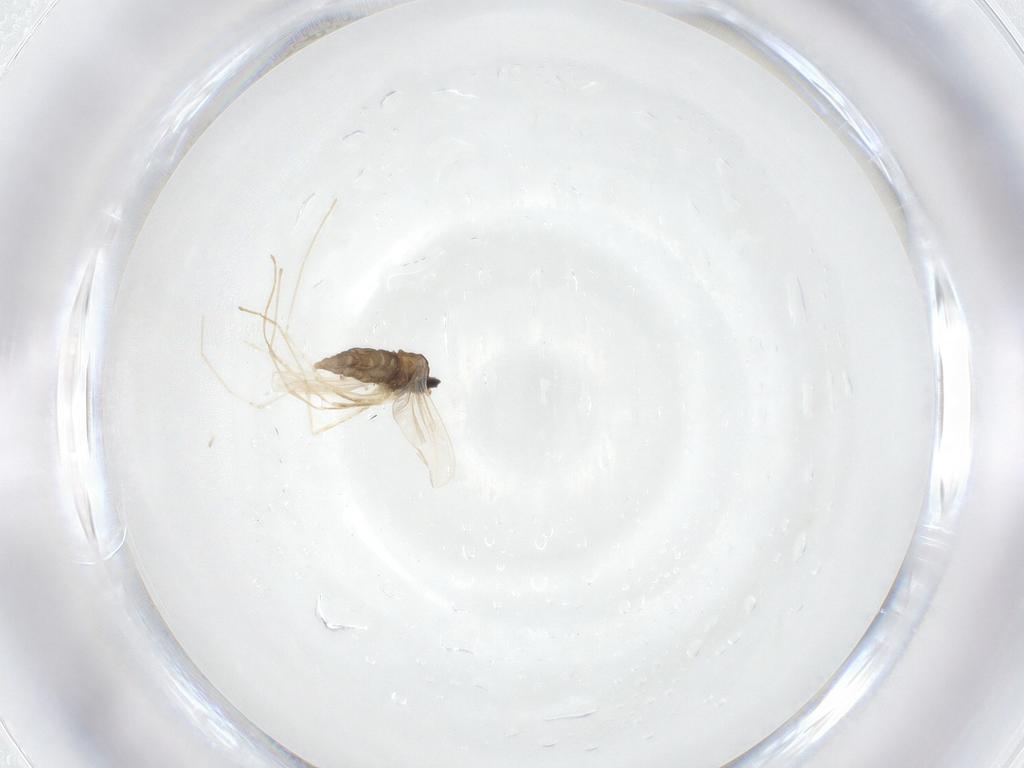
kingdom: Animalia
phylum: Arthropoda
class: Insecta
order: Diptera
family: Cecidomyiidae
